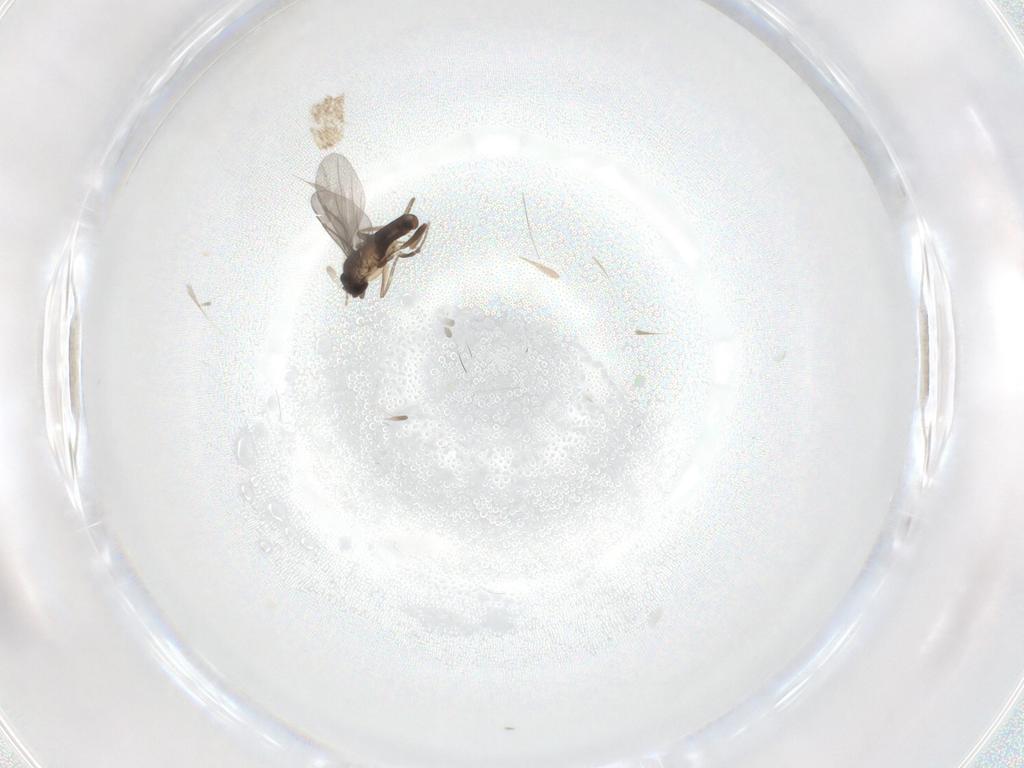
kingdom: Animalia
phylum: Arthropoda
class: Insecta
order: Diptera
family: Phoridae
